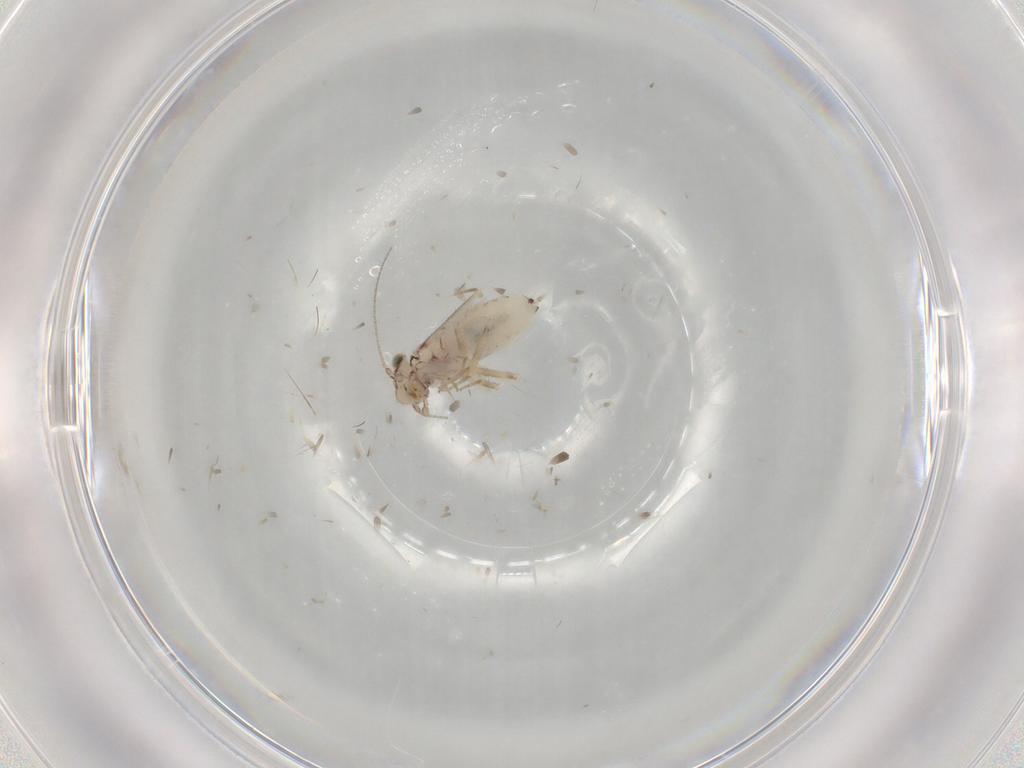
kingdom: Animalia
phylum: Arthropoda
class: Insecta
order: Psocodea
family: Lepidopsocidae
